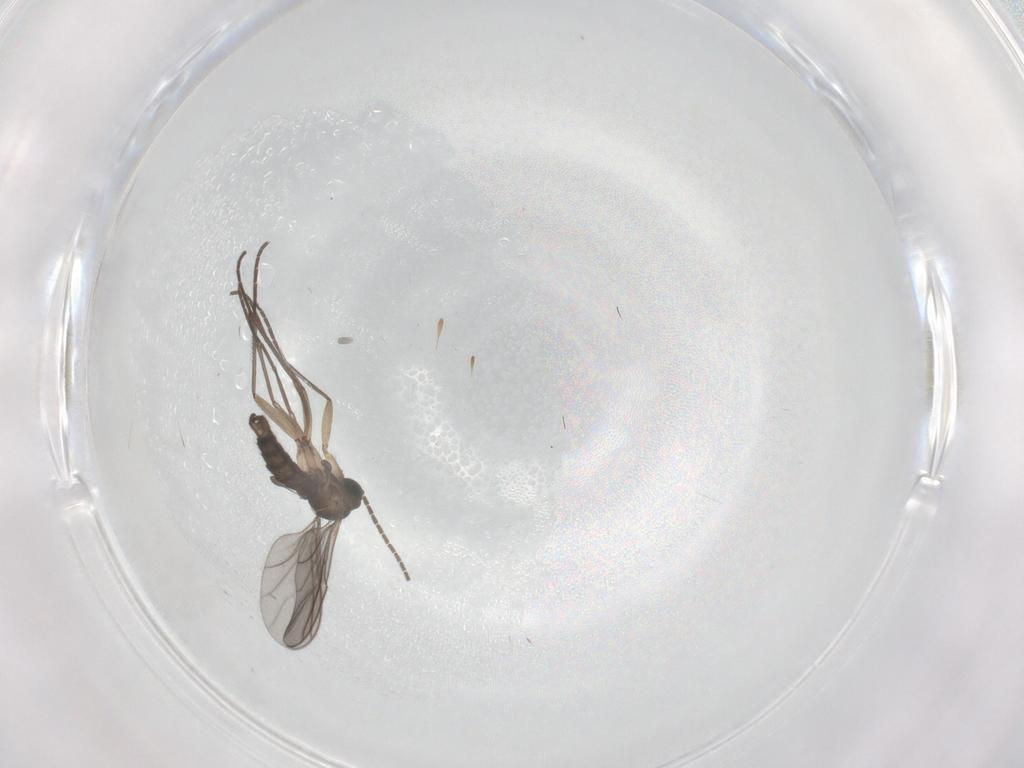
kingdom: Animalia
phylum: Arthropoda
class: Insecta
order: Diptera
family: Sciaridae
